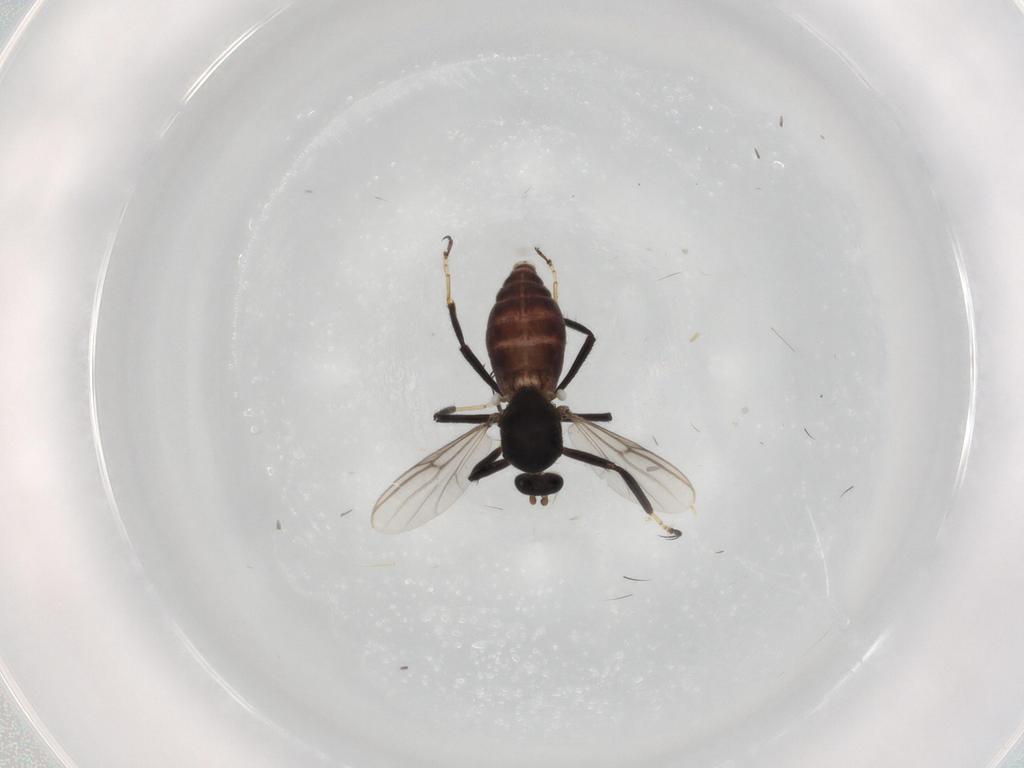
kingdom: Animalia
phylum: Arthropoda
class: Insecta
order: Diptera
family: Ceratopogonidae
